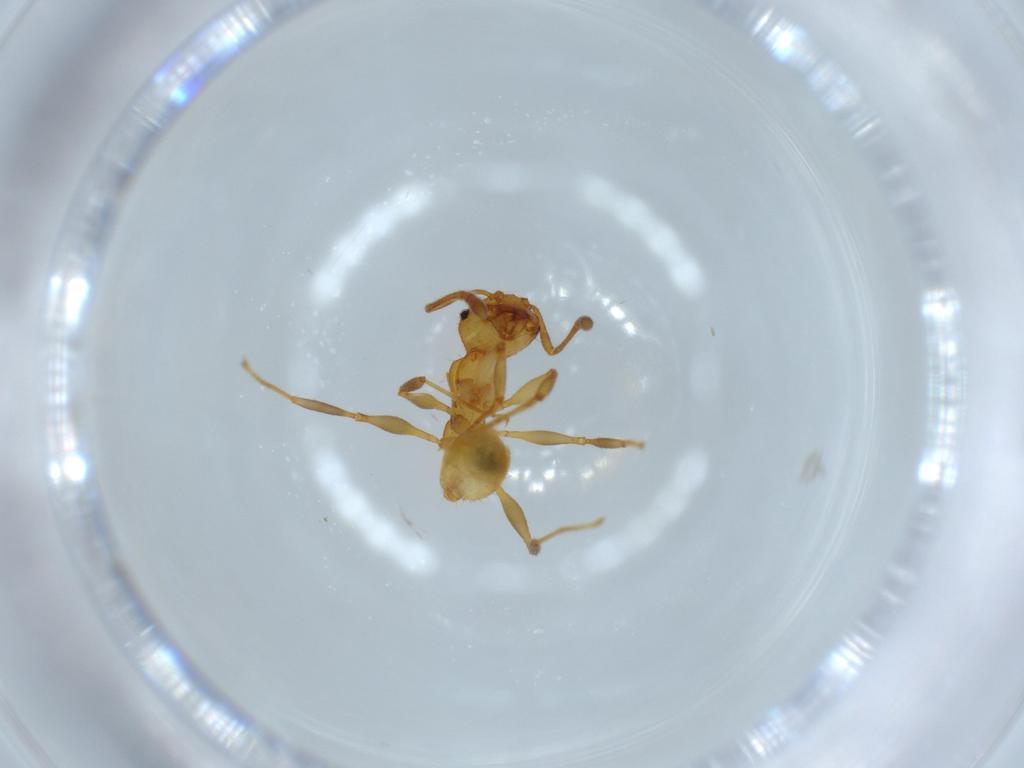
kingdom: Animalia
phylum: Arthropoda
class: Insecta
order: Hymenoptera
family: Formicidae
